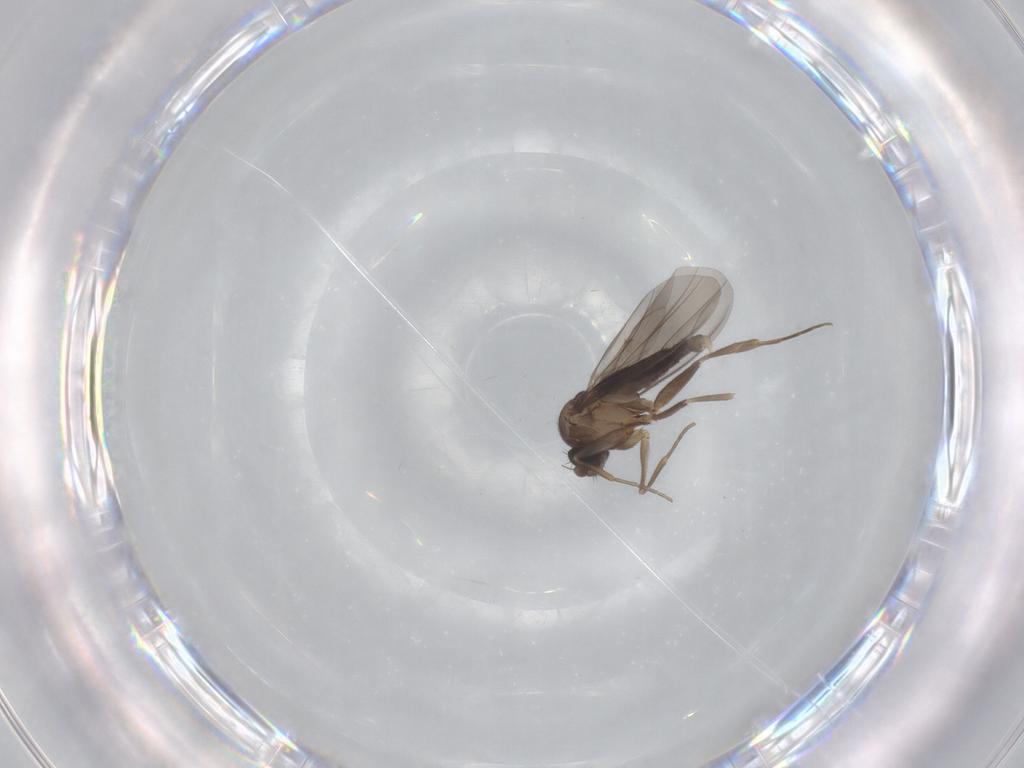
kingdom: Animalia
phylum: Arthropoda
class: Insecta
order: Diptera
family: Phoridae
